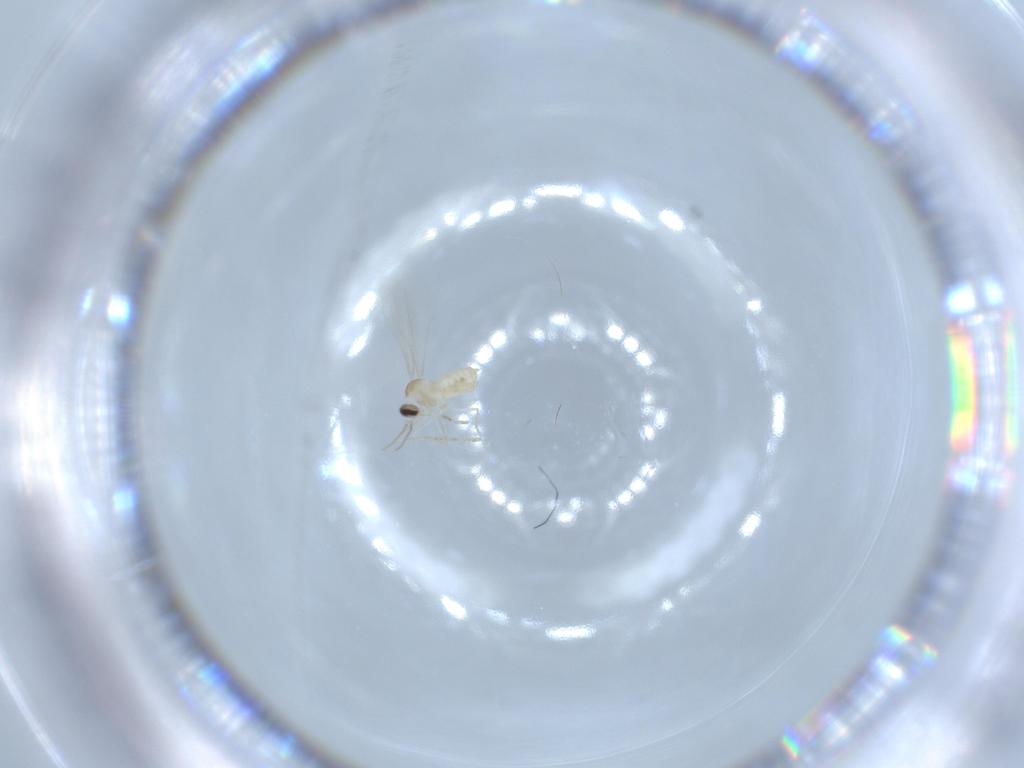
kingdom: Animalia
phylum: Arthropoda
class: Insecta
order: Diptera
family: Cecidomyiidae
